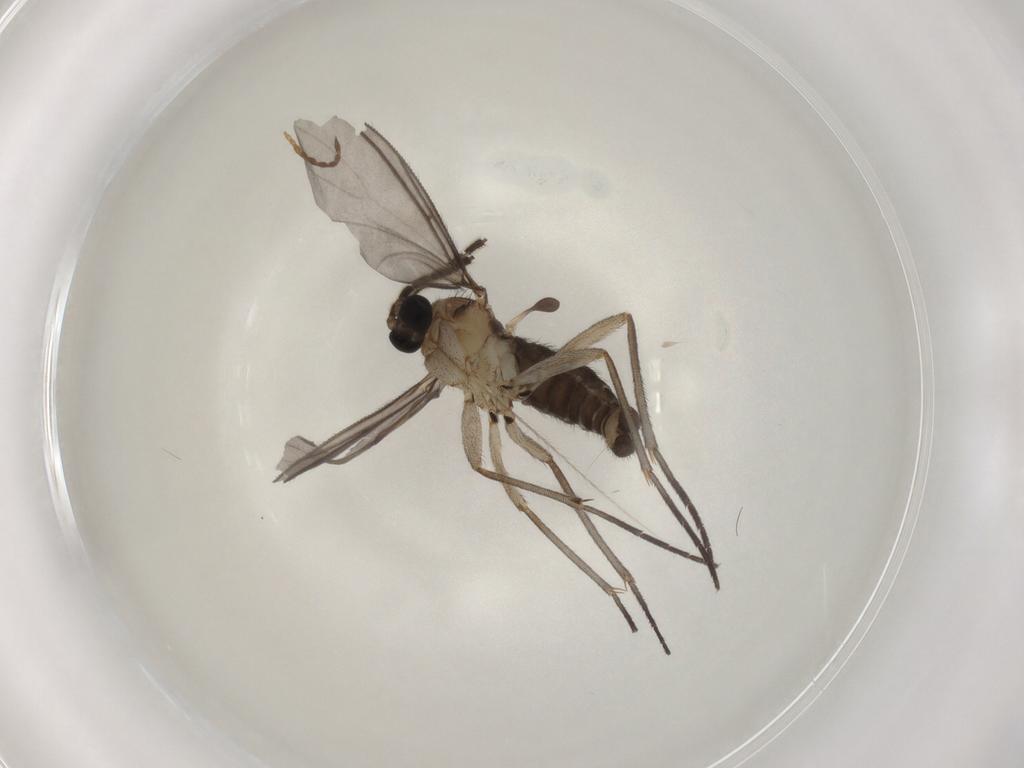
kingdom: Animalia
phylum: Arthropoda
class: Insecta
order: Diptera
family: Sciaridae
